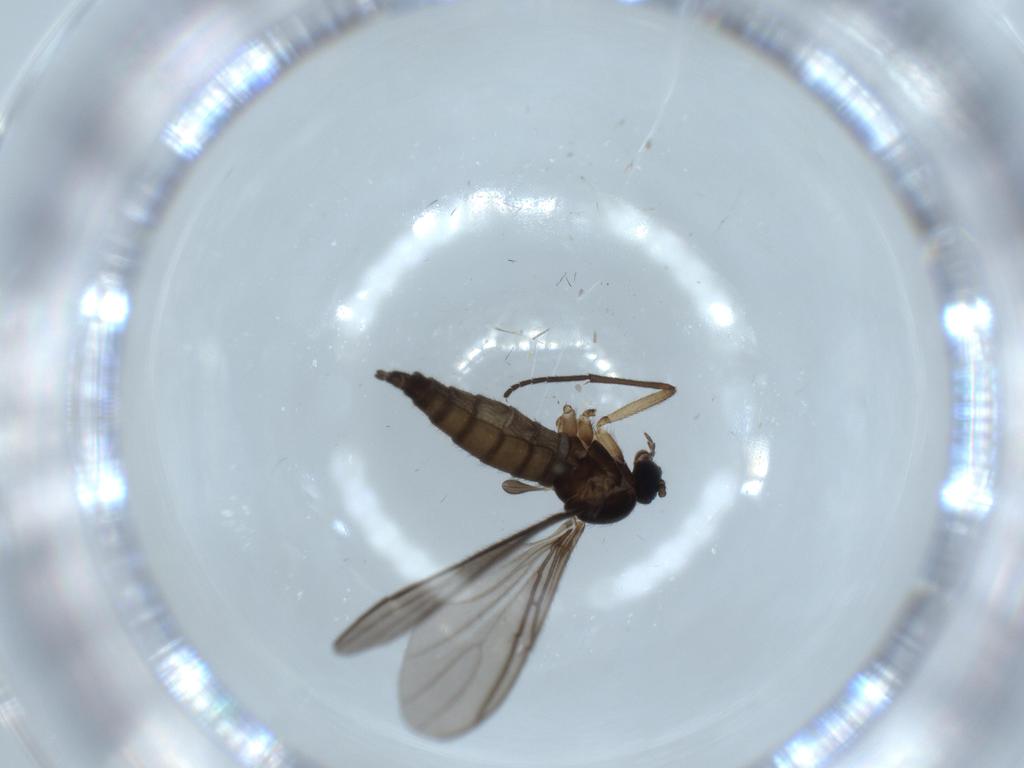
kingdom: Animalia
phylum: Arthropoda
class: Insecta
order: Diptera
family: Sciaridae
